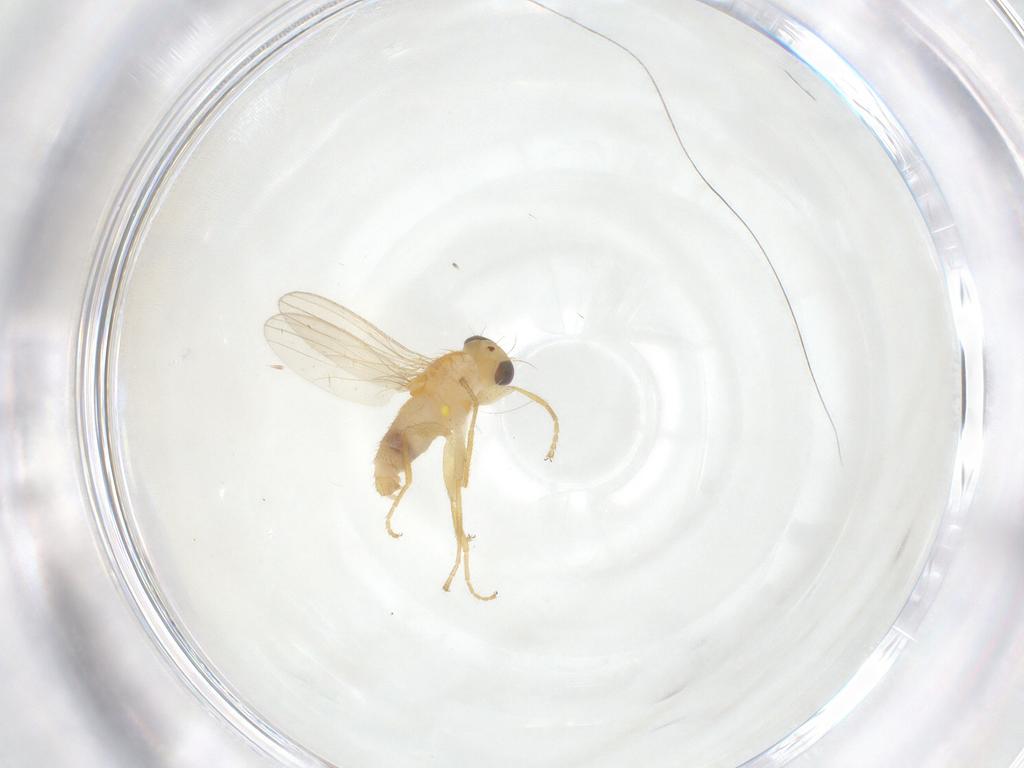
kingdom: Animalia
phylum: Arthropoda
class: Insecta
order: Diptera
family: Chyromyidae
